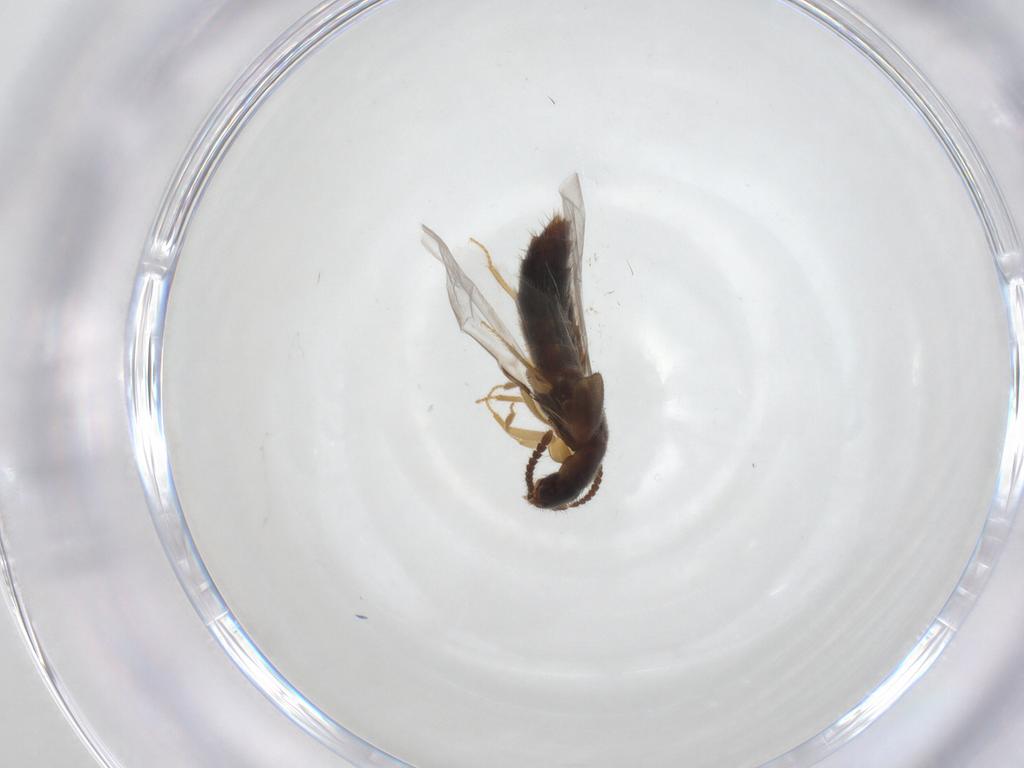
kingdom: Animalia
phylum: Arthropoda
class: Insecta
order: Coleoptera
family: Staphylinidae
